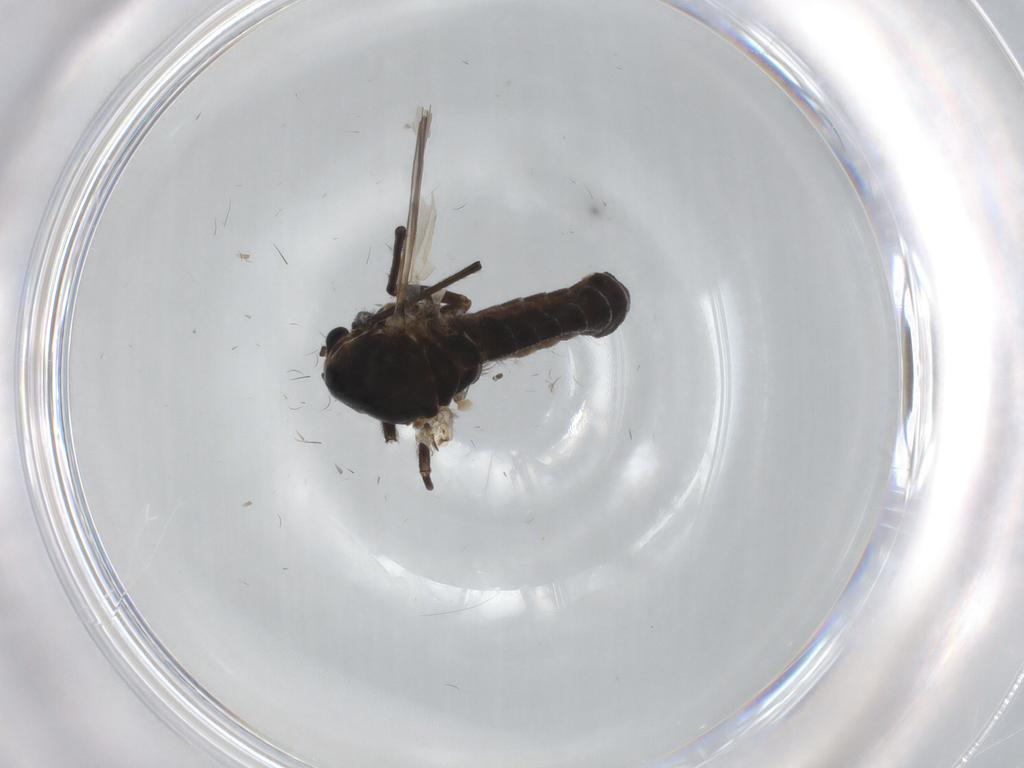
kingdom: Animalia
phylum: Arthropoda
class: Insecta
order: Diptera
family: Chironomidae
